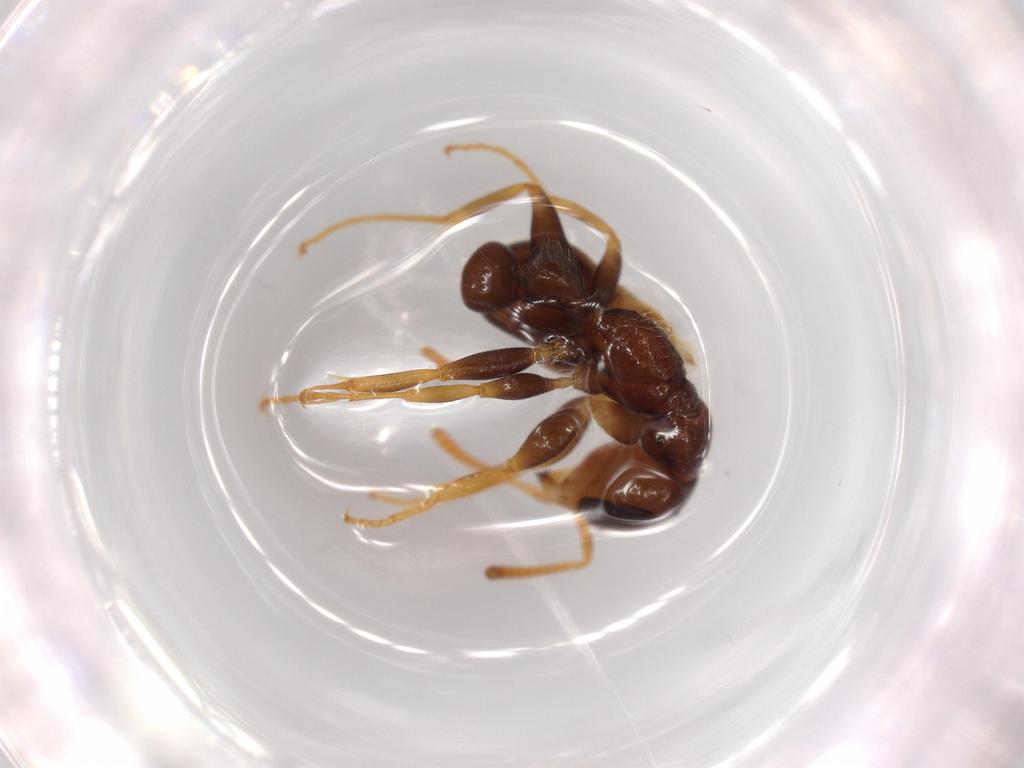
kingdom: Animalia
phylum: Arthropoda
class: Insecta
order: Hymenoptera
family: Formicidae
